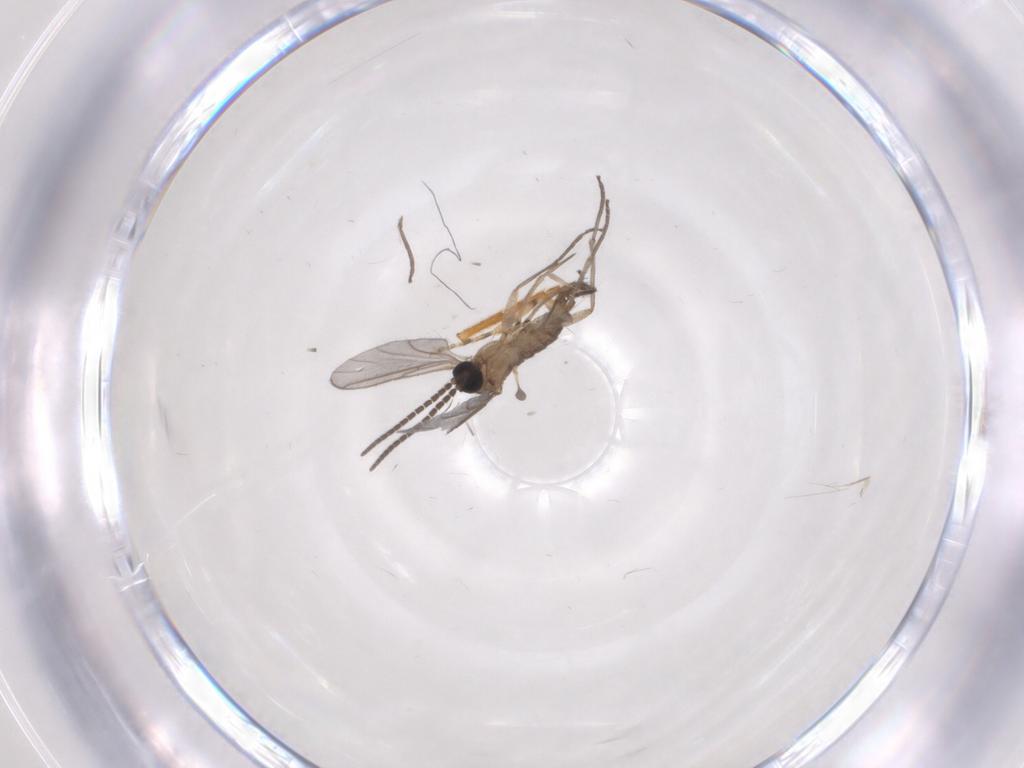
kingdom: Animalia
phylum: Arthropoda
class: Insecta
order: Diptera
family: Sciaridae
